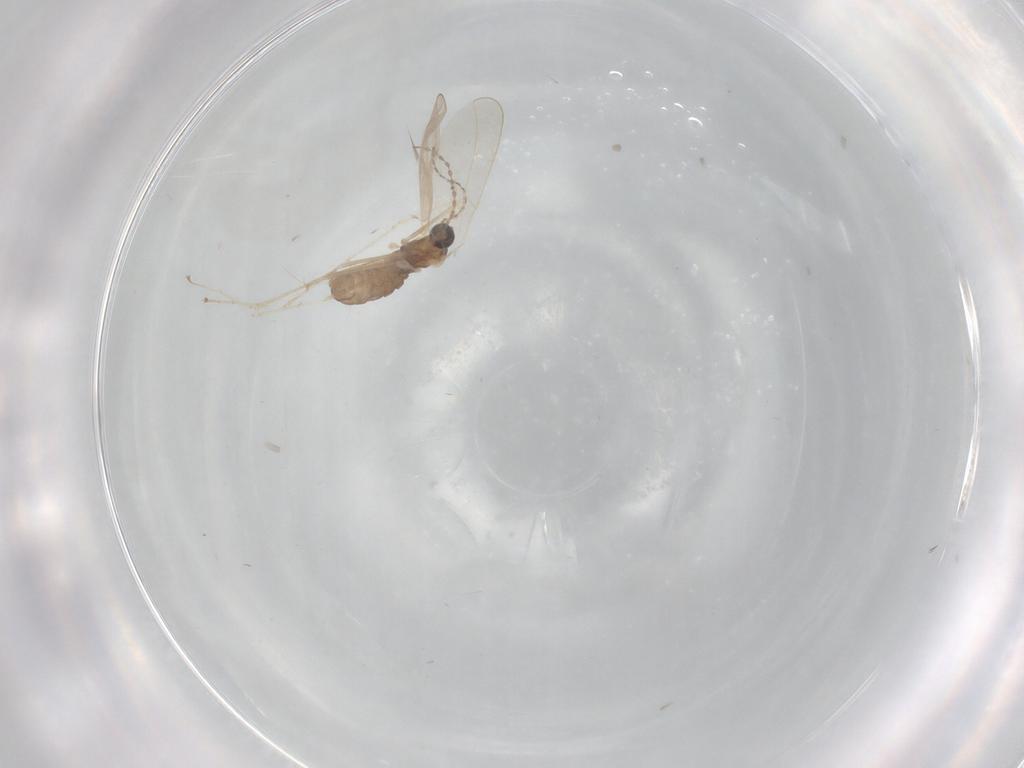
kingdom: Animalia
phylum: Arthropoda
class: Insecta
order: Diptera
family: Cecidomyiidae
